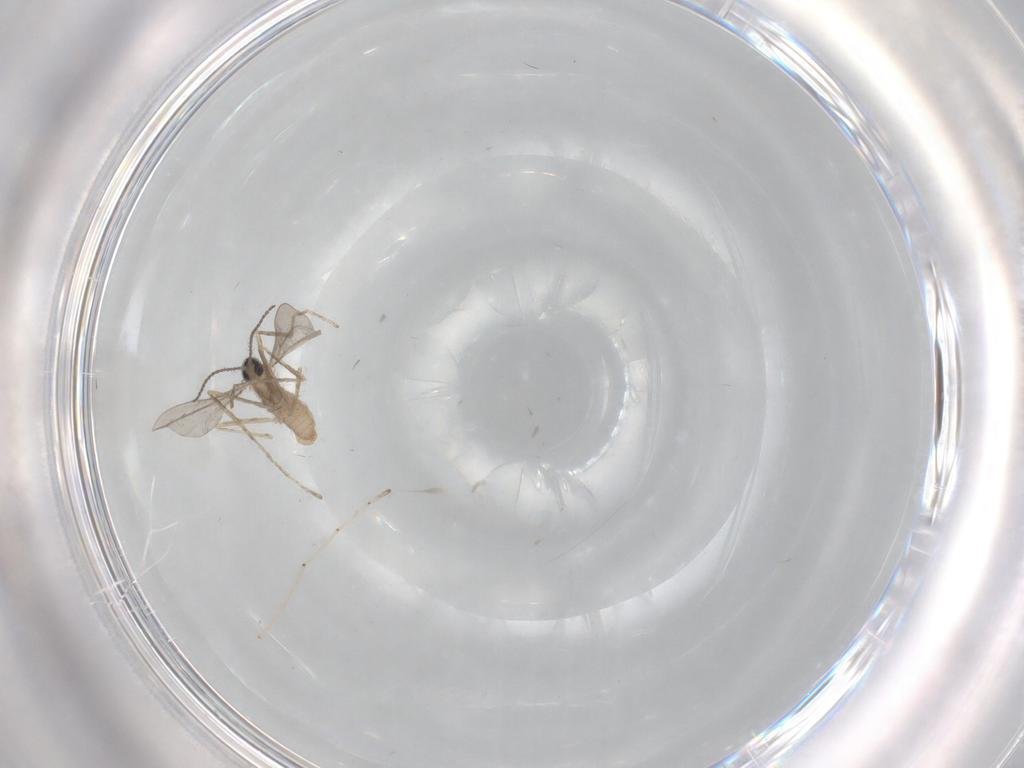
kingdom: Animalia
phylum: Arthropoda
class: Insecta
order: Diptera
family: Cecidomyiidae
